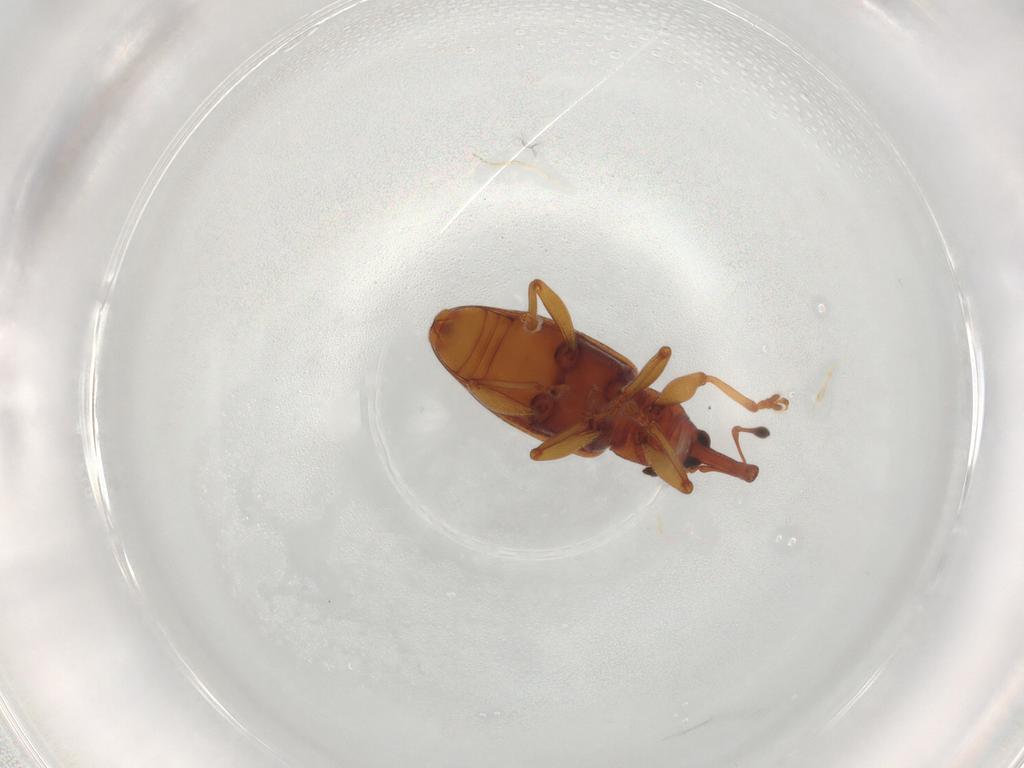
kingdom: Animalia
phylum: Arthropoda
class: Insecta
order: Coleoptera
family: Curculionidae
